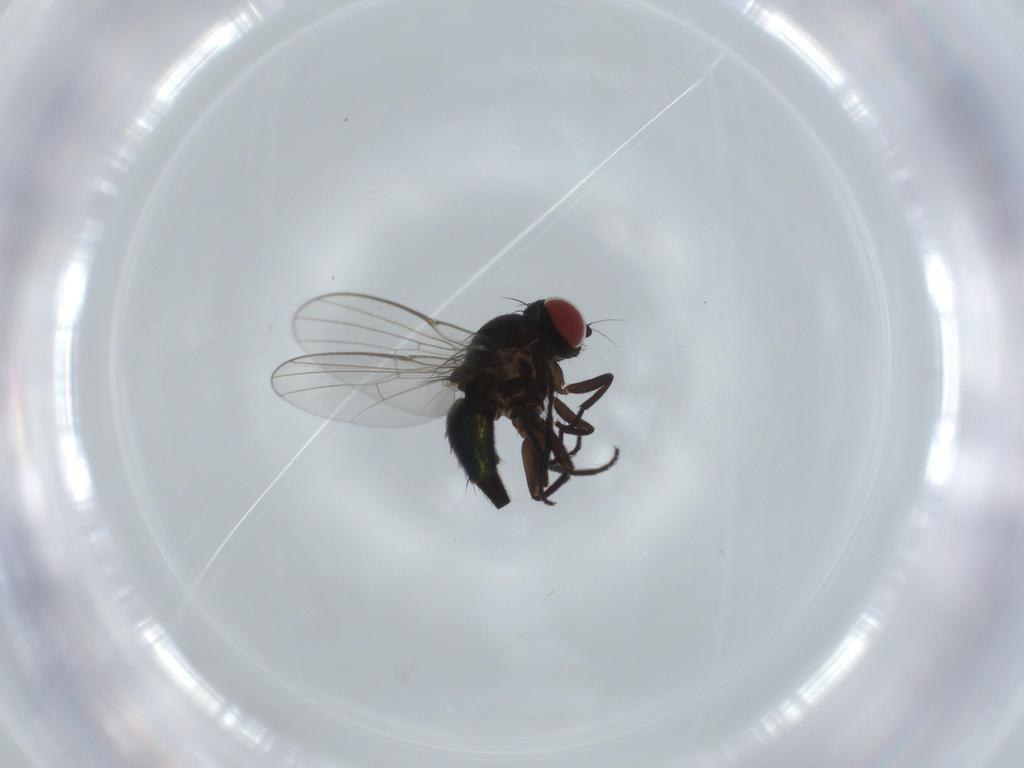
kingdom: Animalia
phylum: Arthropoda
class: Insecta
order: Diptera
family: Agromyzidae
